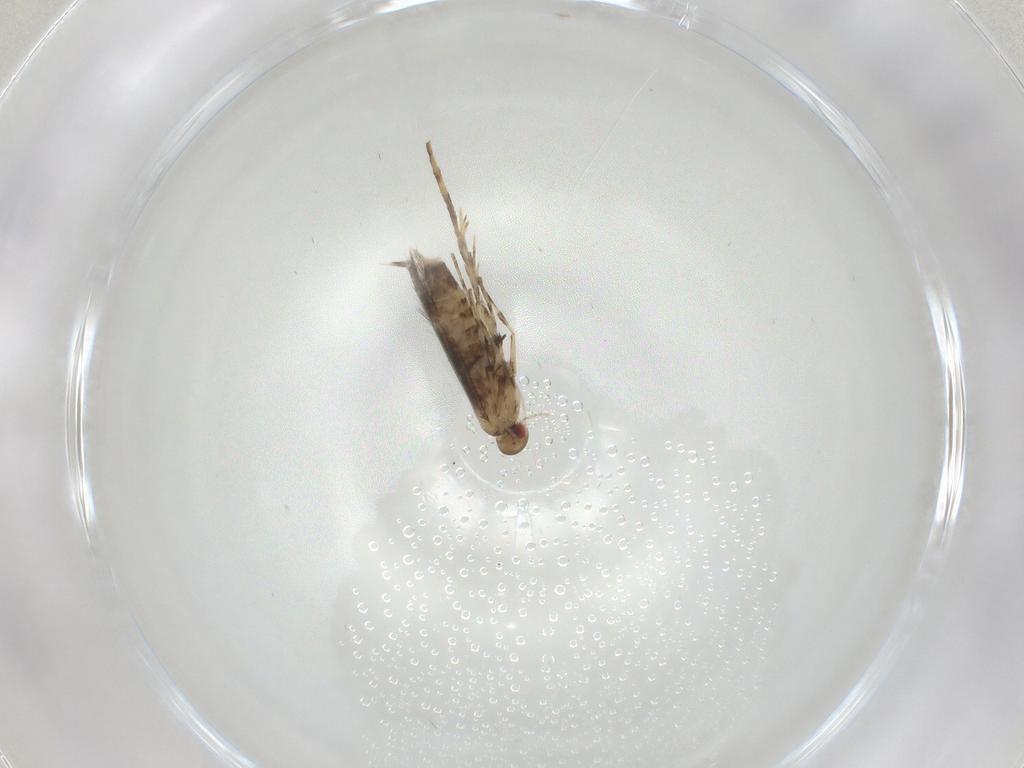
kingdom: Animalia
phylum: Arthropoda
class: Insecta
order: Lepidoptera
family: Gracillariidae
